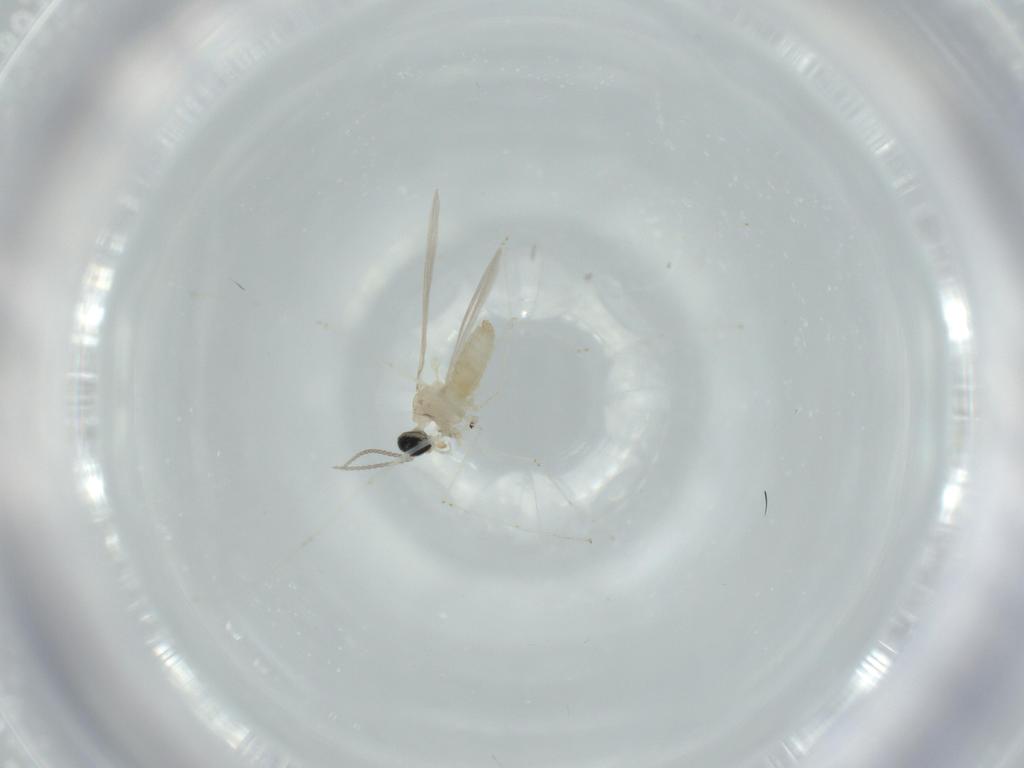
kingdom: Animalia
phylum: Arthropoda
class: Insecta
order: Diptera
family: Cecidomyiidae
